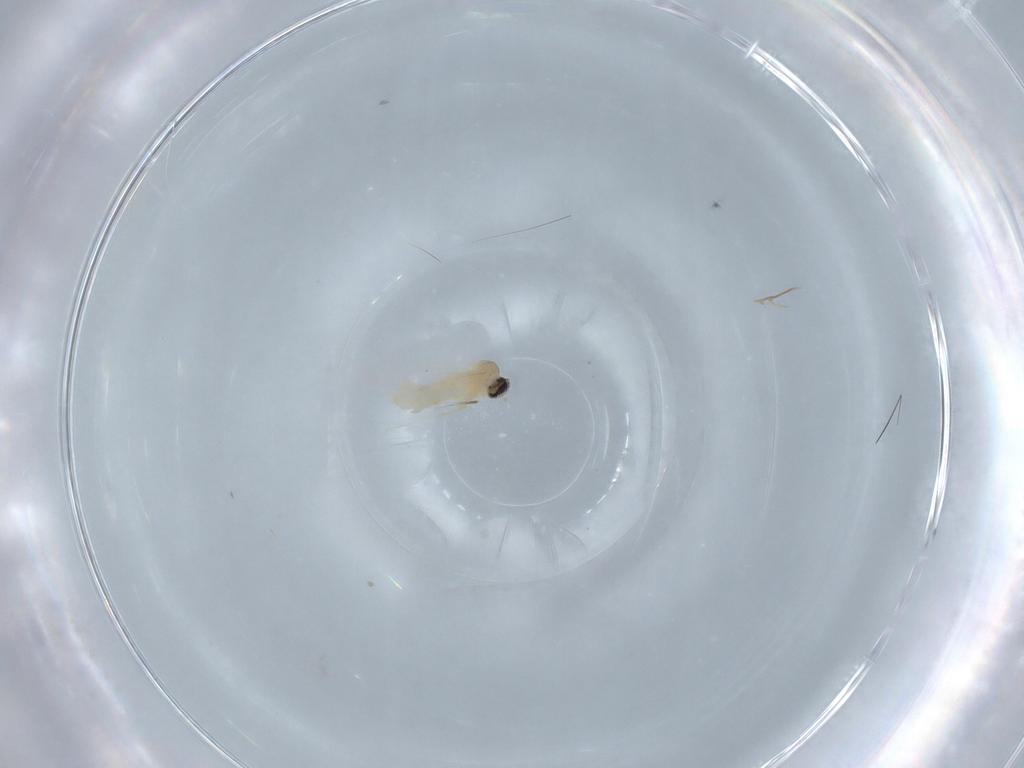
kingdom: Animalia
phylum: Arthropoda
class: Insecta
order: Diptera
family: Cecidomyiidae
